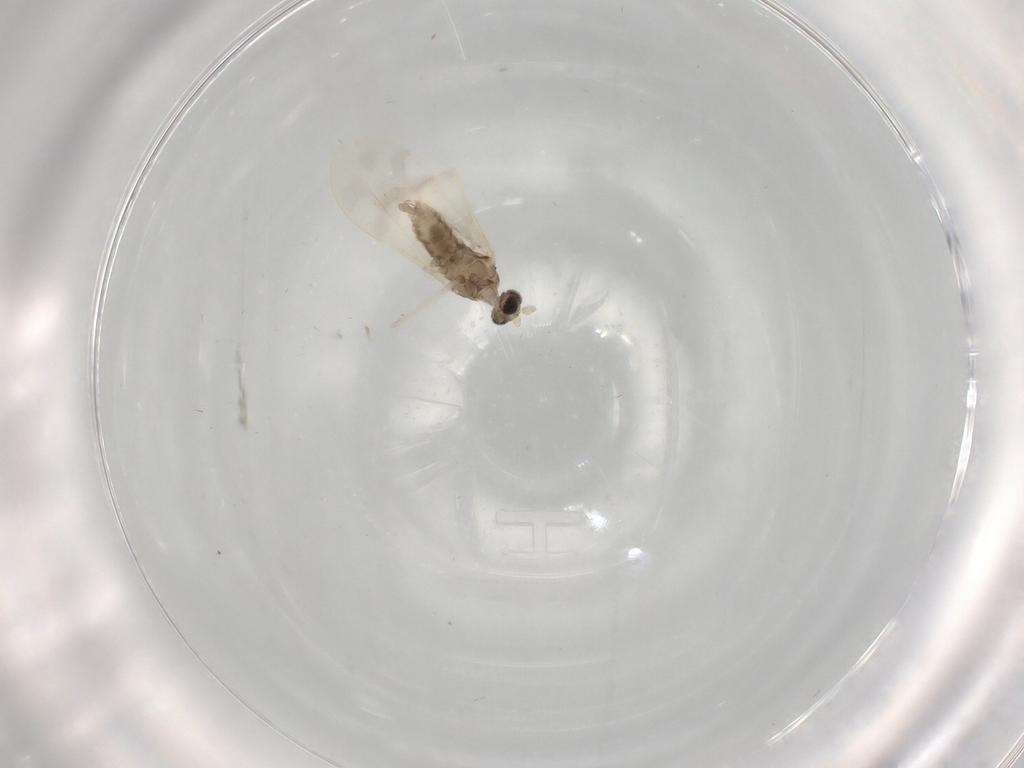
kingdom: Animalia
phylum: Arthropoda
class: Insecta
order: Diptera
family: Cecidomyiidae
